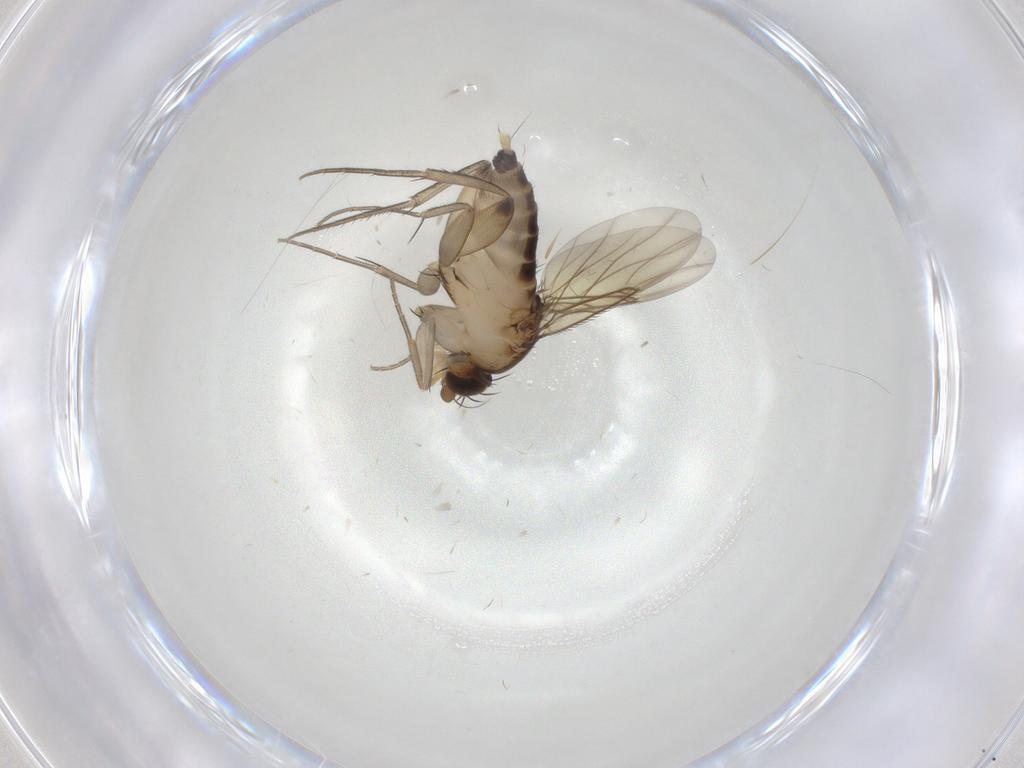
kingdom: Animalia
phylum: Arthropoda
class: Insecta
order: Diptera
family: Phoridae
